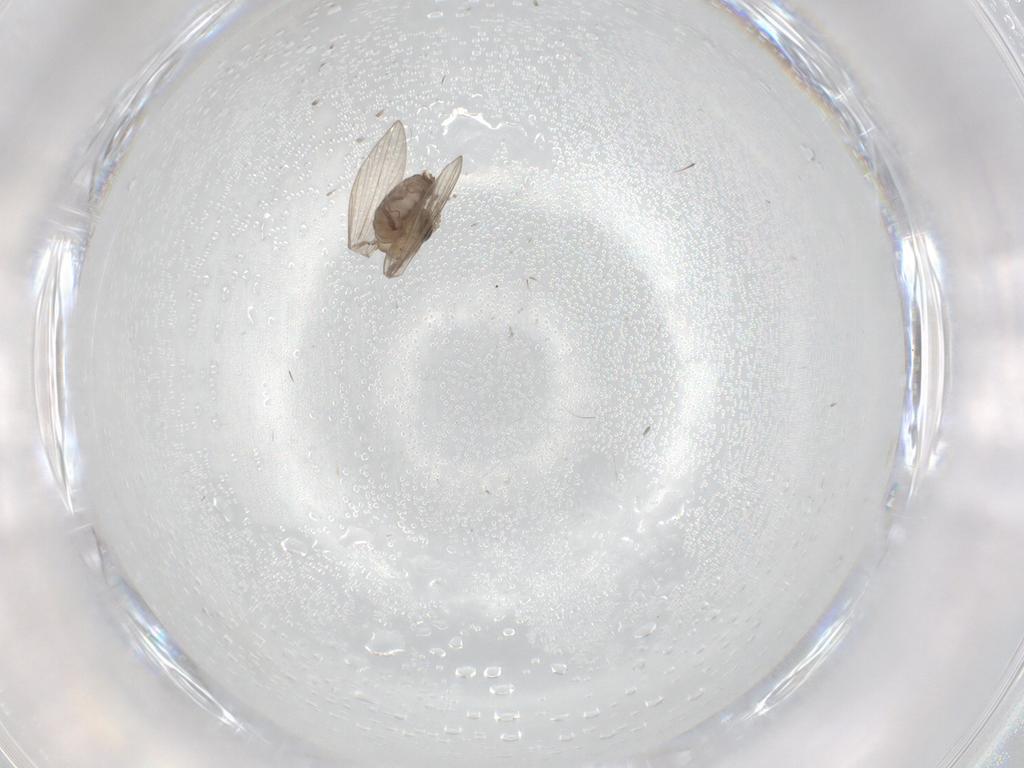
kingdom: Animalia
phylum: Arthropoda
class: Insecta
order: Diptera
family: Psychodidae
